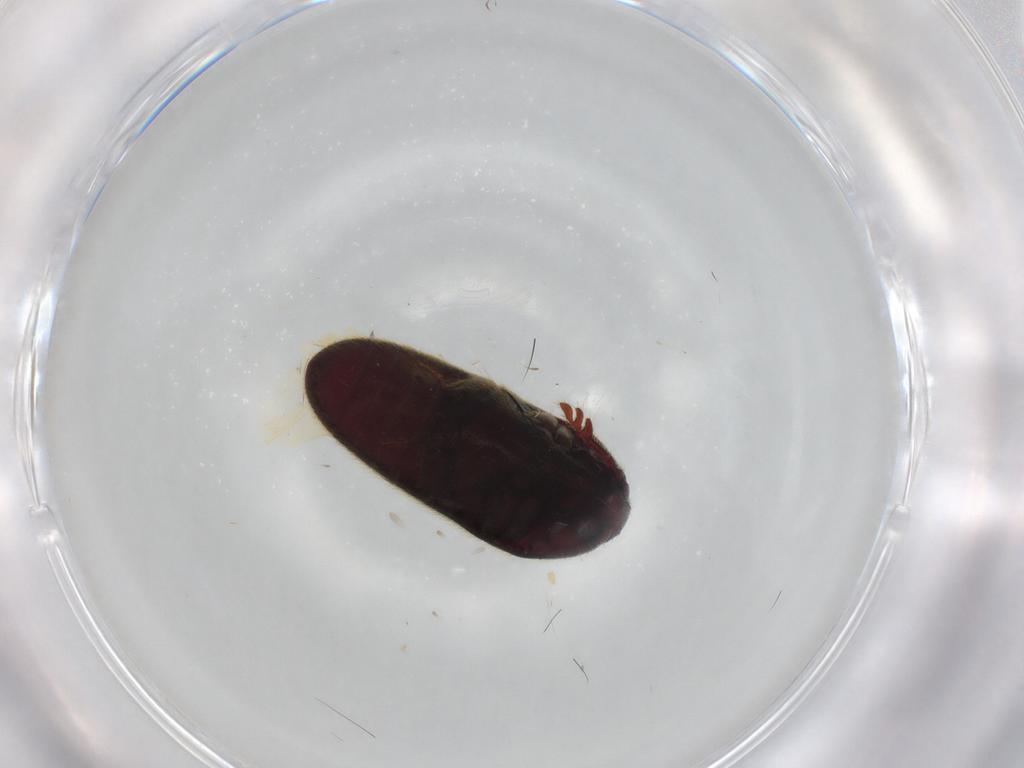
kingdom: Animalia
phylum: Arthropoda
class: Insecta
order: Coleoptera
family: Throscidae
